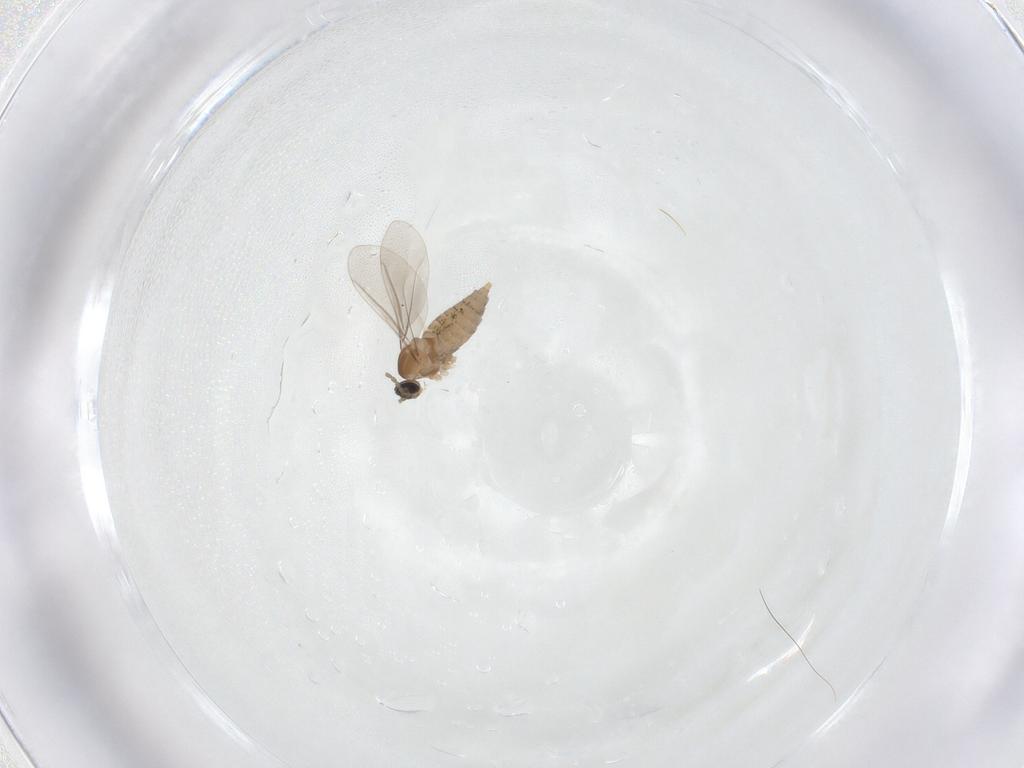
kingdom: Animalia
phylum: Arthropoda
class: Insecta
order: Diptera
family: Cecidomyiidae
